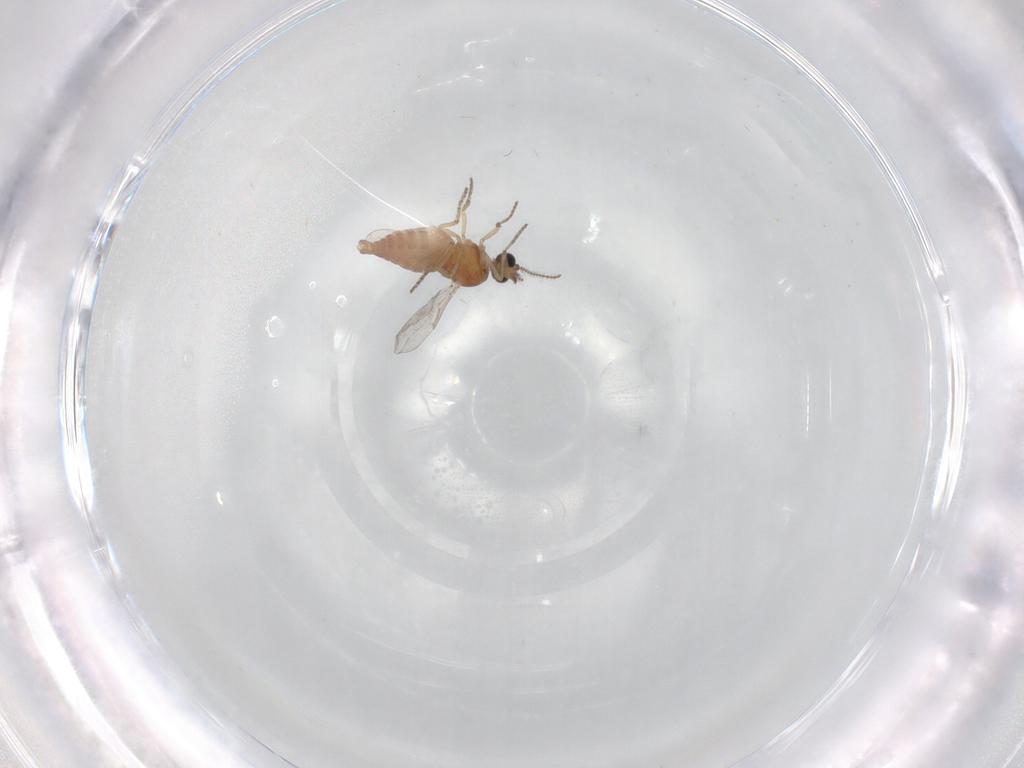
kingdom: Animalia
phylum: Arthropoda
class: Insecta
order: Diptera
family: Ceratopogonidae
